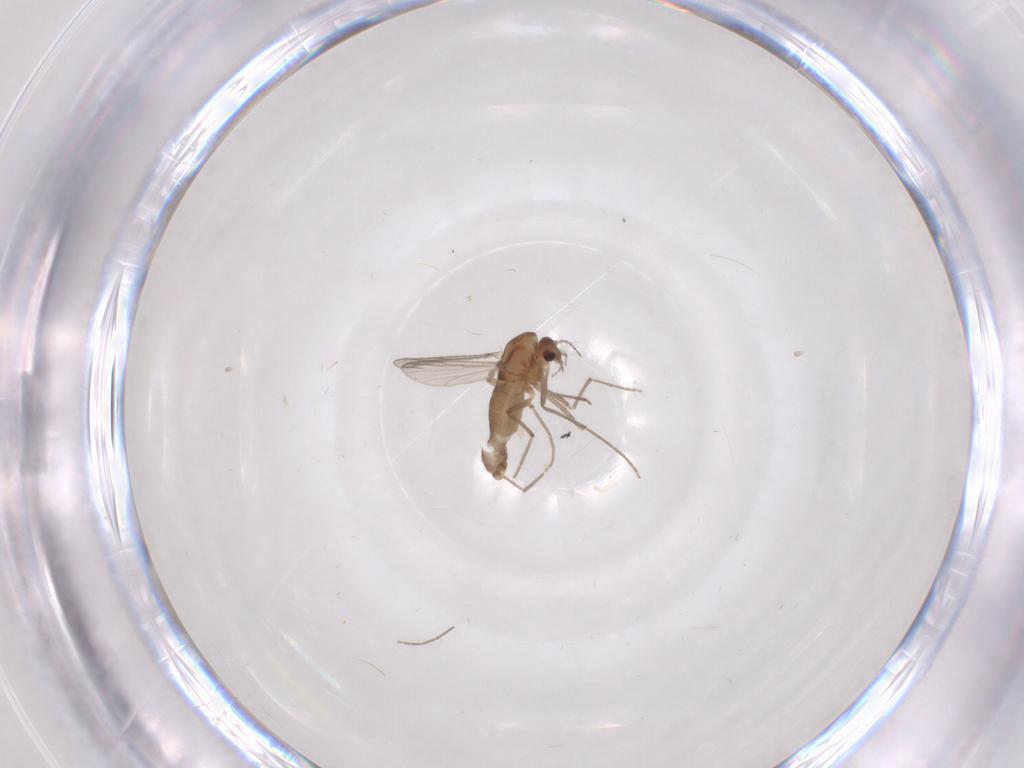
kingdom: Animalia
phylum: Arthropoda
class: Insecta
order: Diptera
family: Chironomidae
